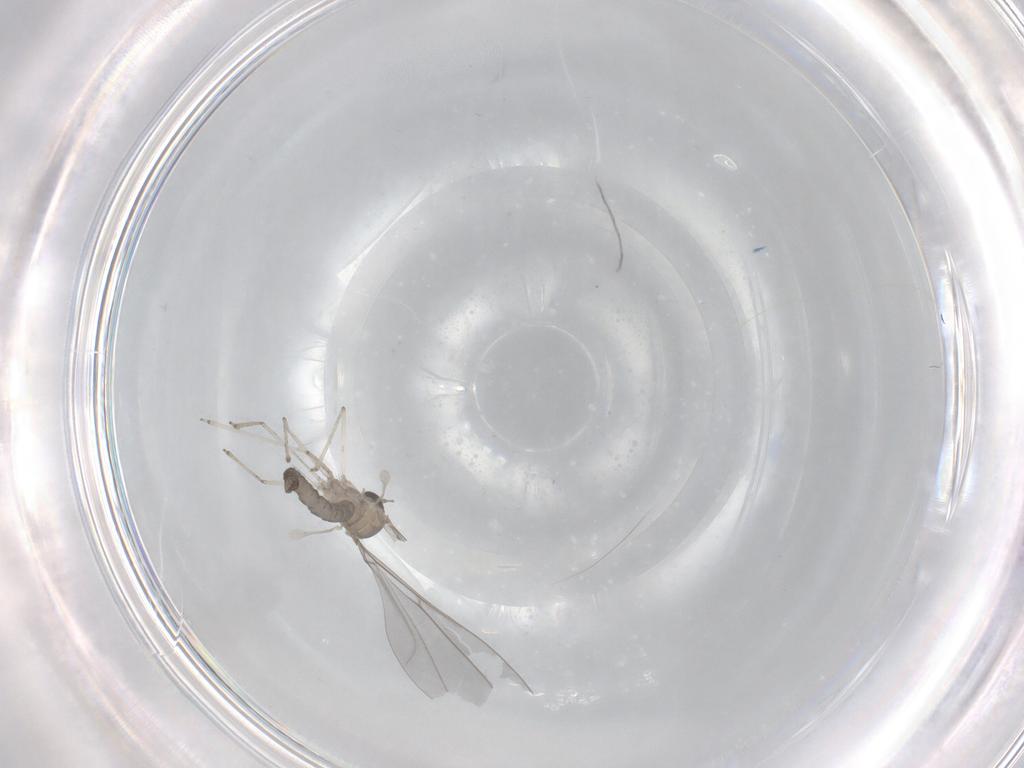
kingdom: Animalia
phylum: Arthropoda
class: Insecta
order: Diptera
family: Cecidomyiidae
